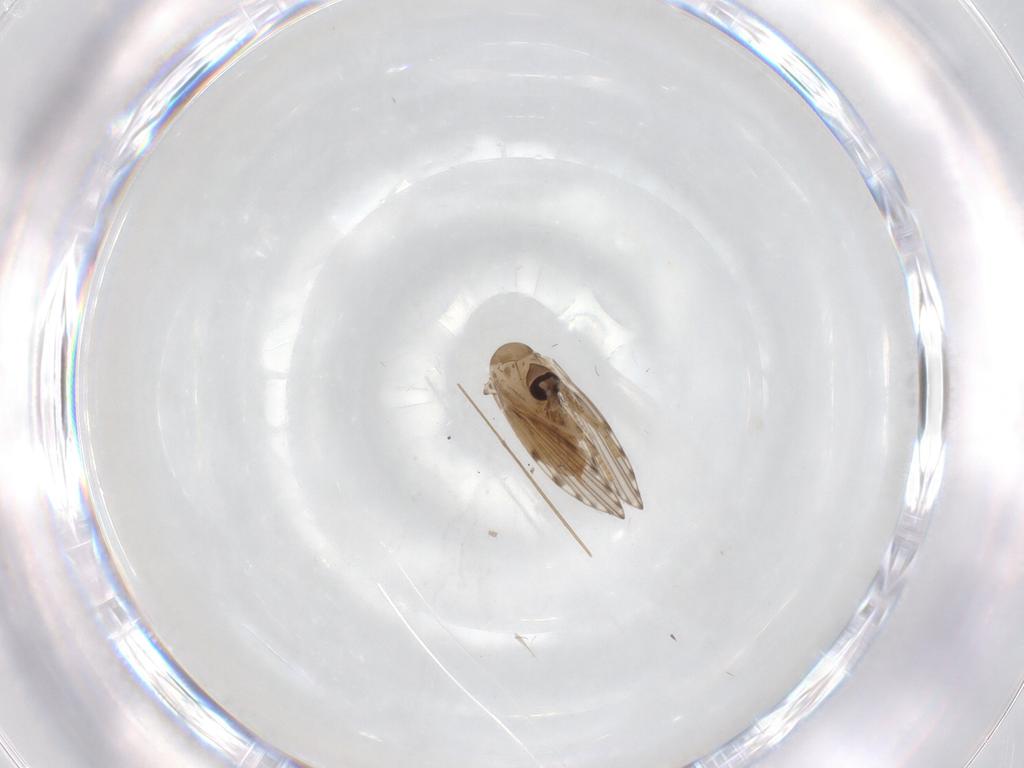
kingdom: Animalia
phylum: Arthropoda
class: Insecta
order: Diptera
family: Psychodidae
